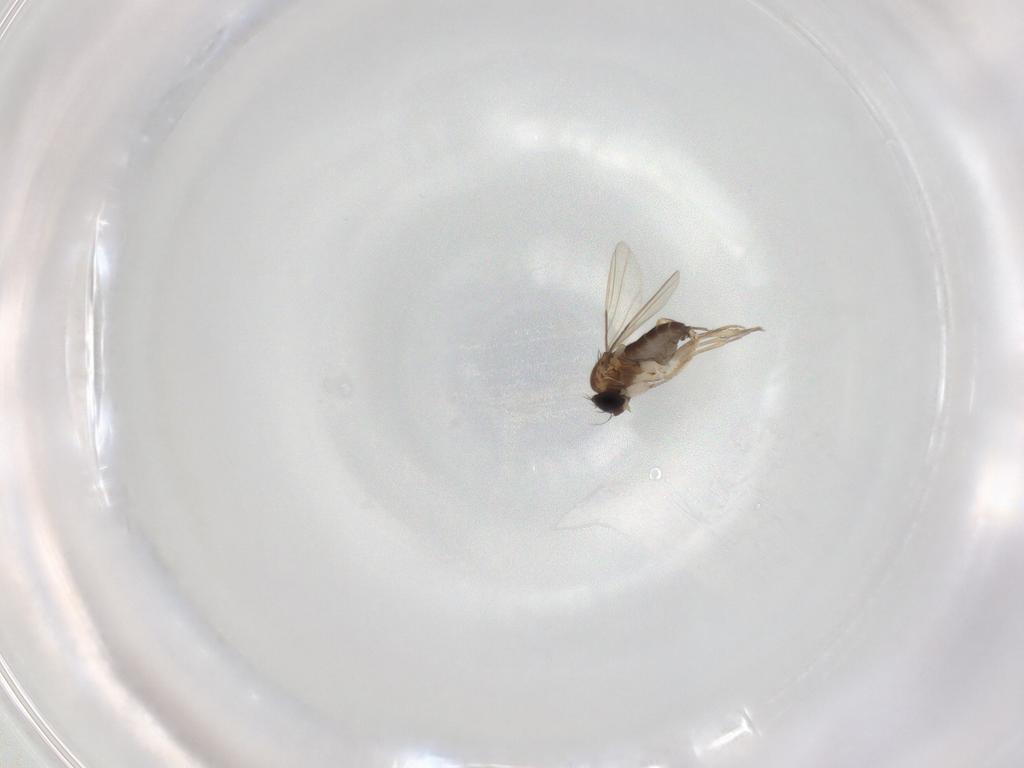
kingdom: Animalia
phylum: Arthropoda
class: Insecta
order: Diptera
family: Phoridae
